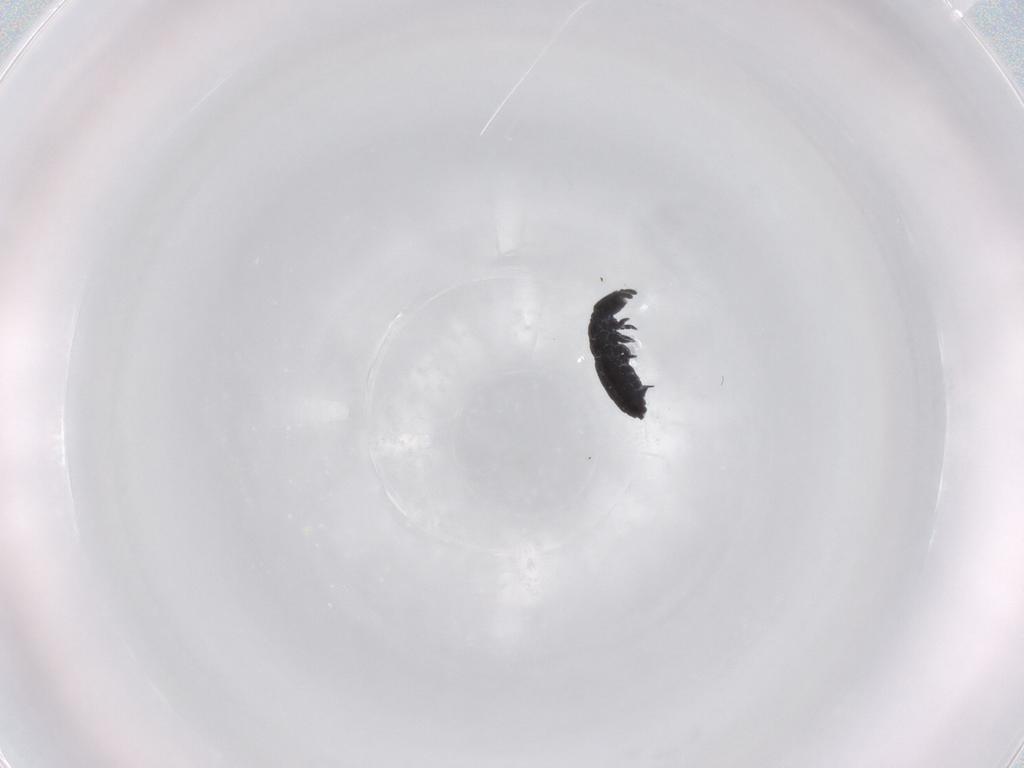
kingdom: Animalia
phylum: Arthropoda
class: Collembola
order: Poduromorpha
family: Hypogastruridae
